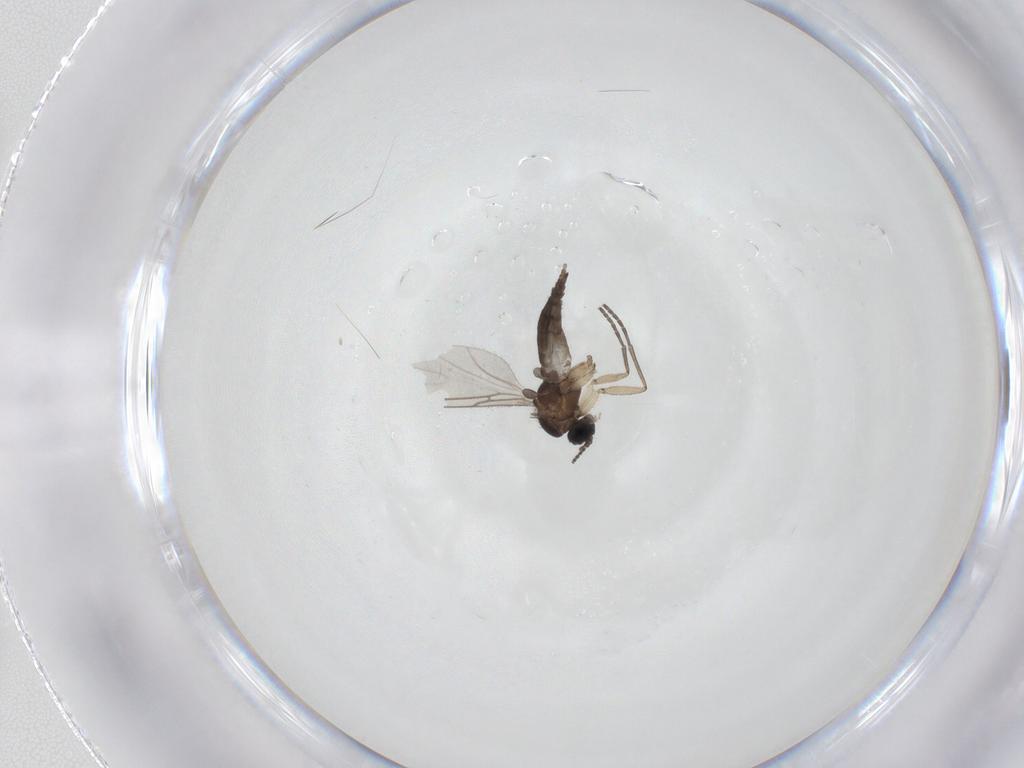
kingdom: Animalia
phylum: Arthropoda
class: Insecta
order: Diptera
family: Sciaridae
